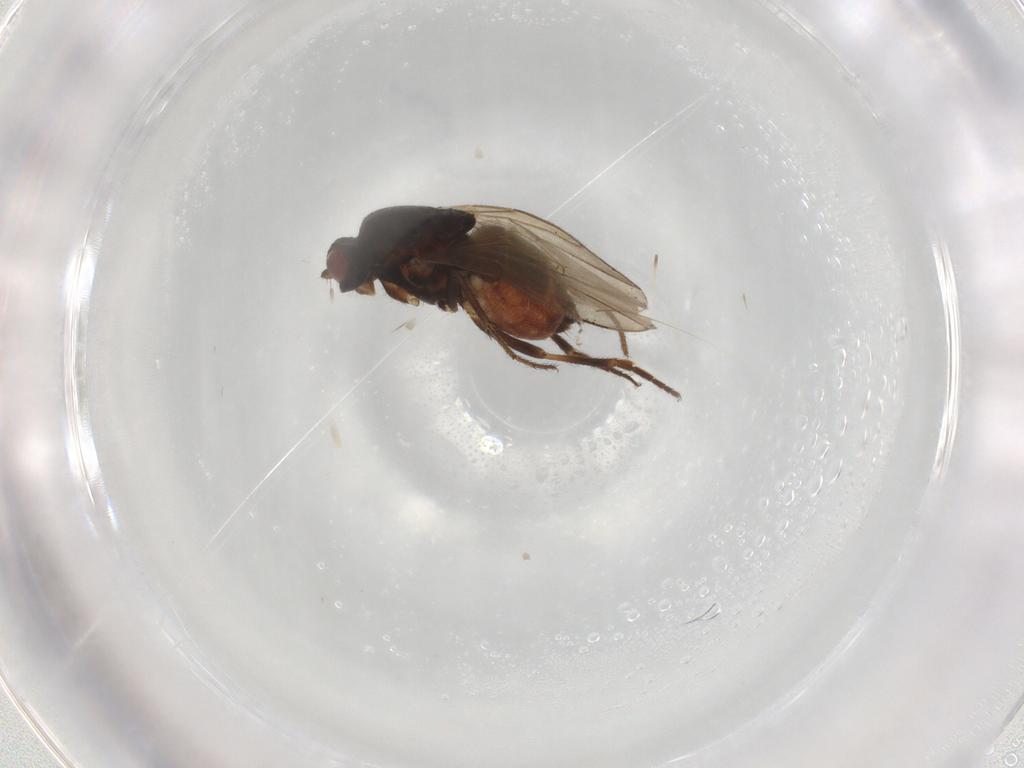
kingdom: Animalia
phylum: Arthropoda
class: Insecta
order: Diptera
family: Sphaeroceridae
